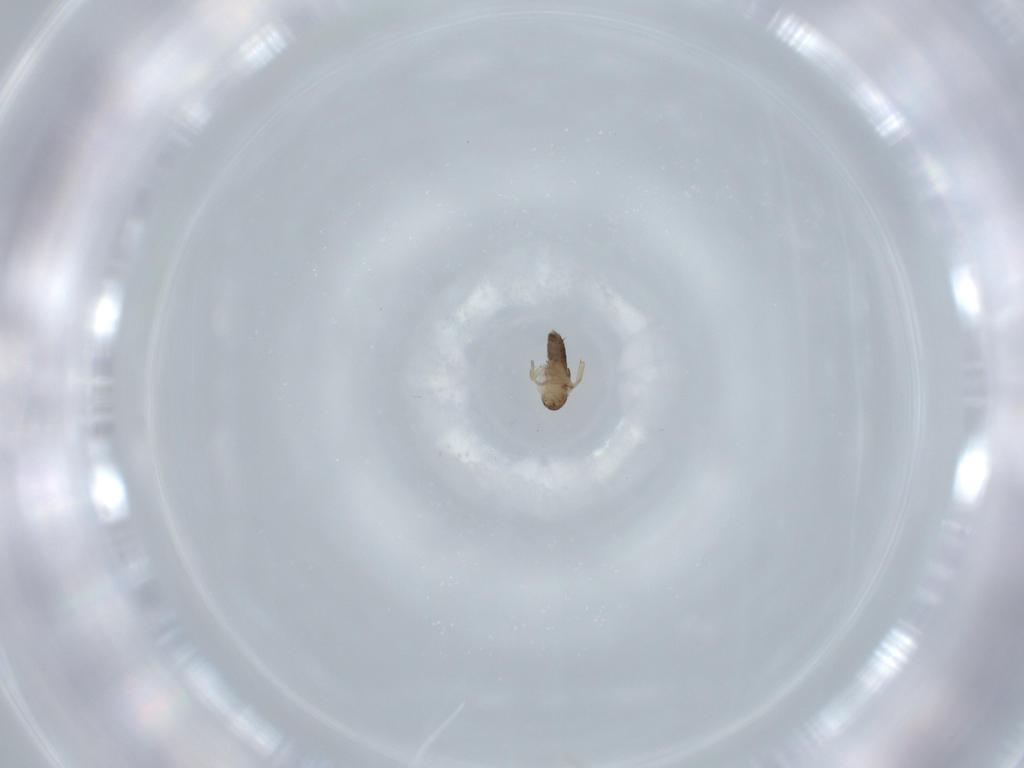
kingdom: Animalia
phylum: Arthropoda
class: Insecta
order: Diptera
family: Phoridae
